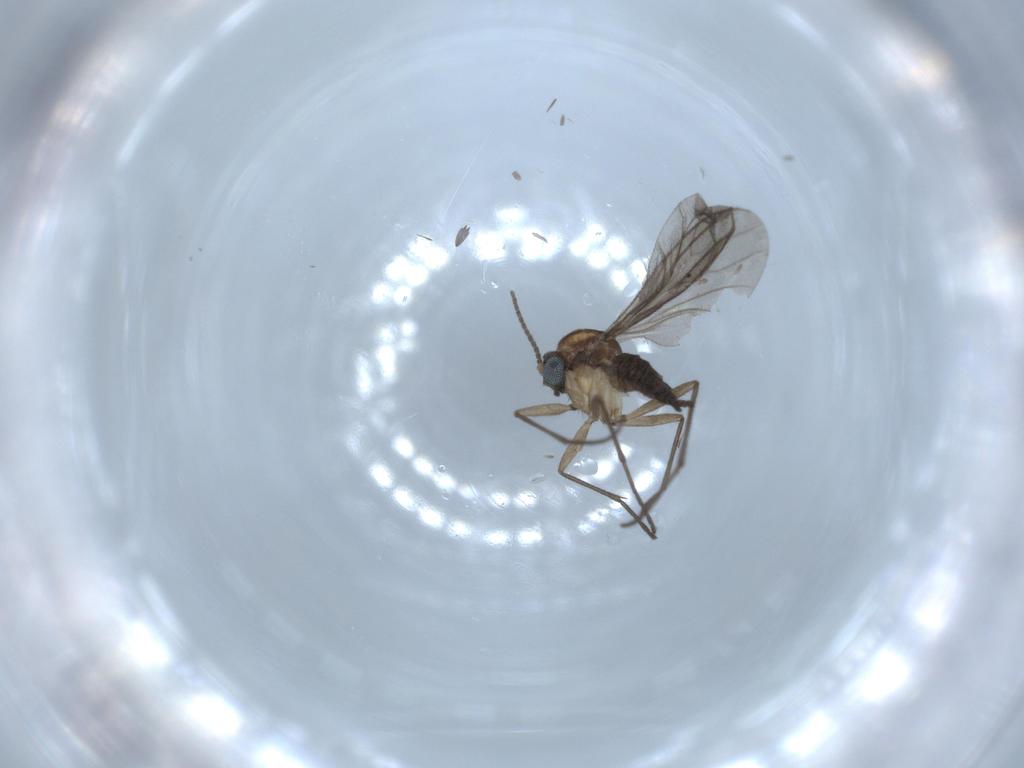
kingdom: Animalia
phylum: Arthropoda
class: Insecta
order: Diptera
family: Sciaridae
